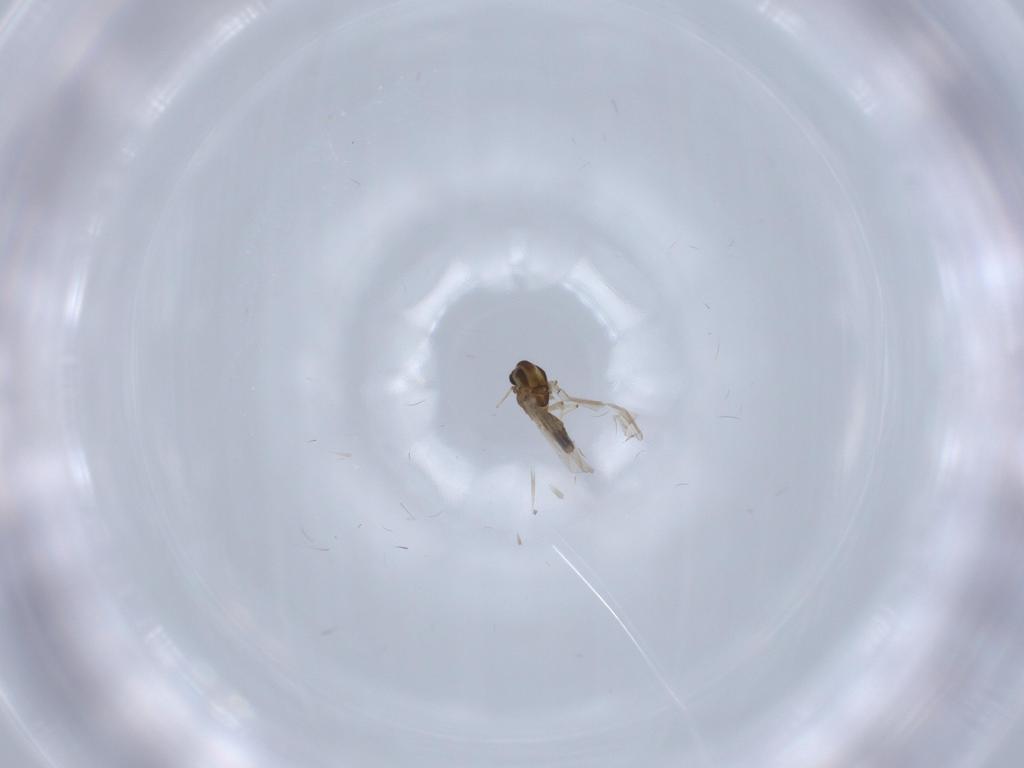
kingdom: Animalia
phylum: Arthropoda
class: Insecta
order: Diptera
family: Chironomidae
